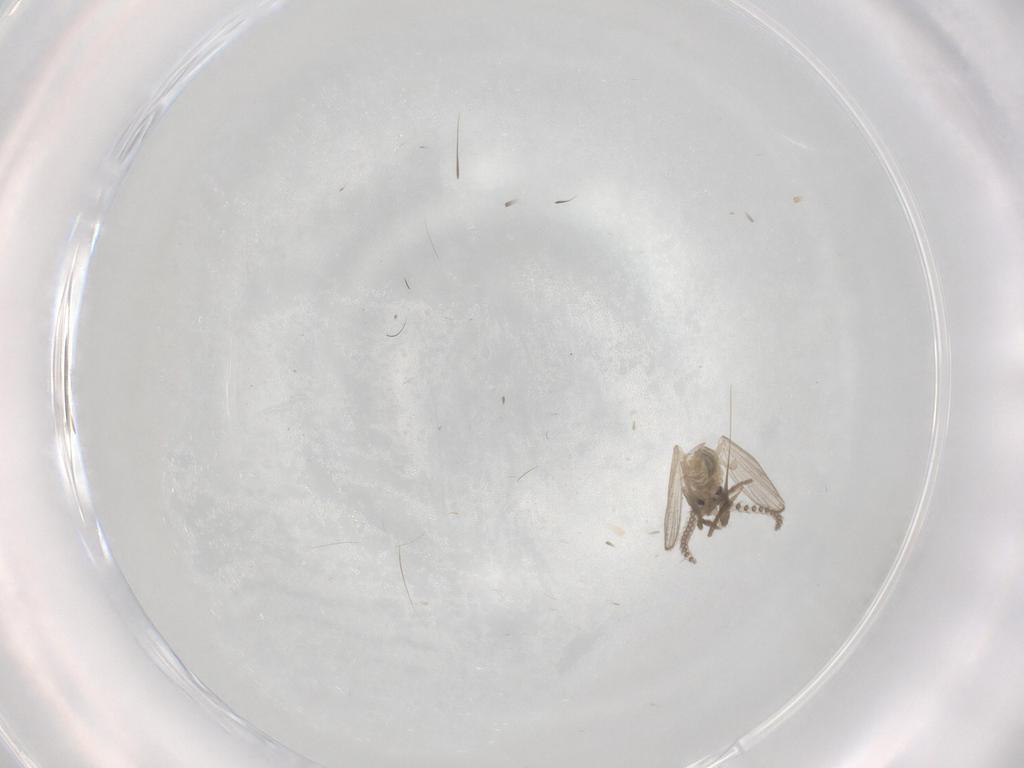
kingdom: Animalia
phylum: Arthropoda
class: Insecta
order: Diptera
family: Psychodidae
